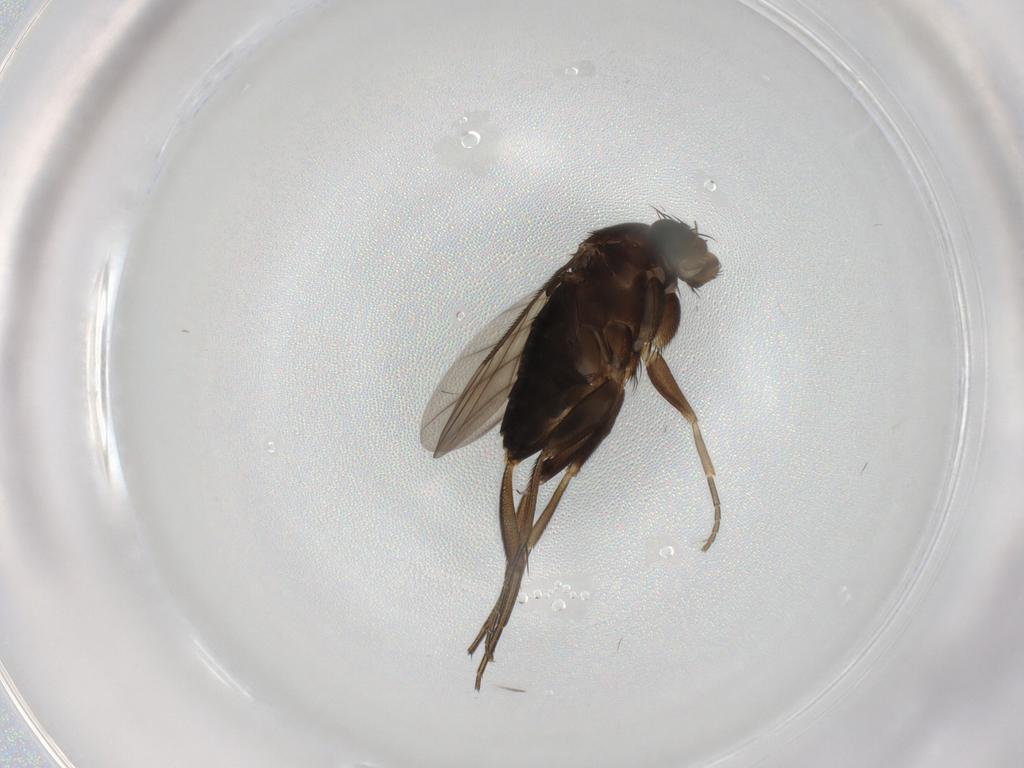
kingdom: Animalia
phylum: Arthropoda
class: Insecta
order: Diptera
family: Phoridae
